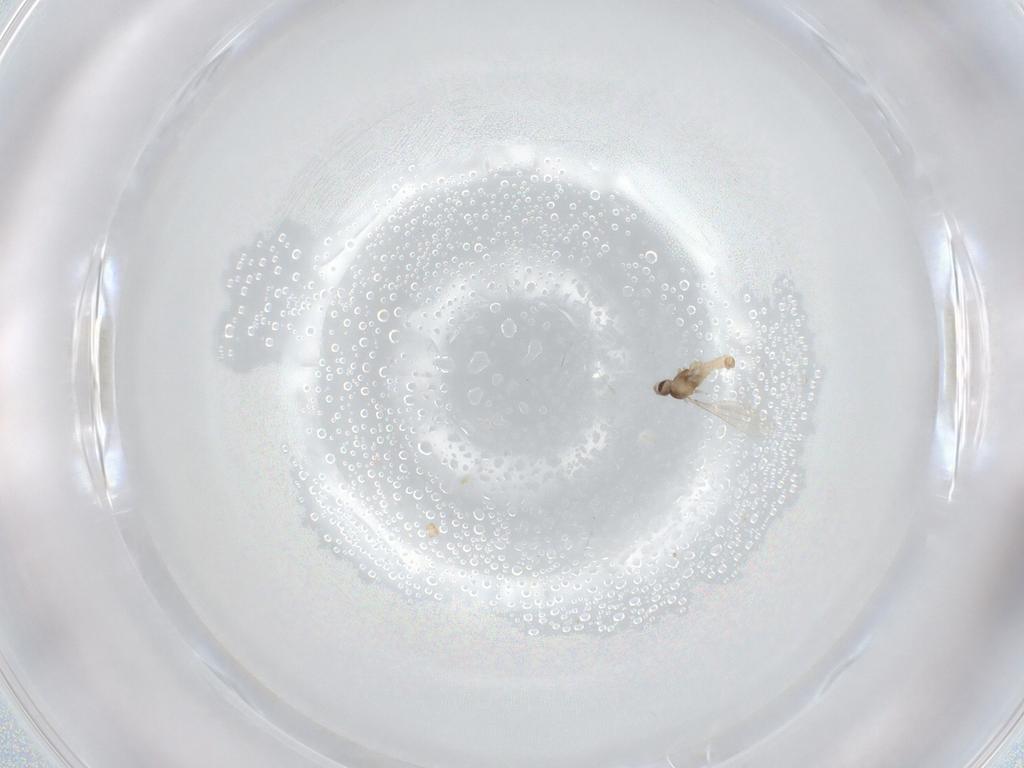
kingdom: Animalia
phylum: Arthropoda
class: Insecta
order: Diptera
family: Cecidomyiidae
